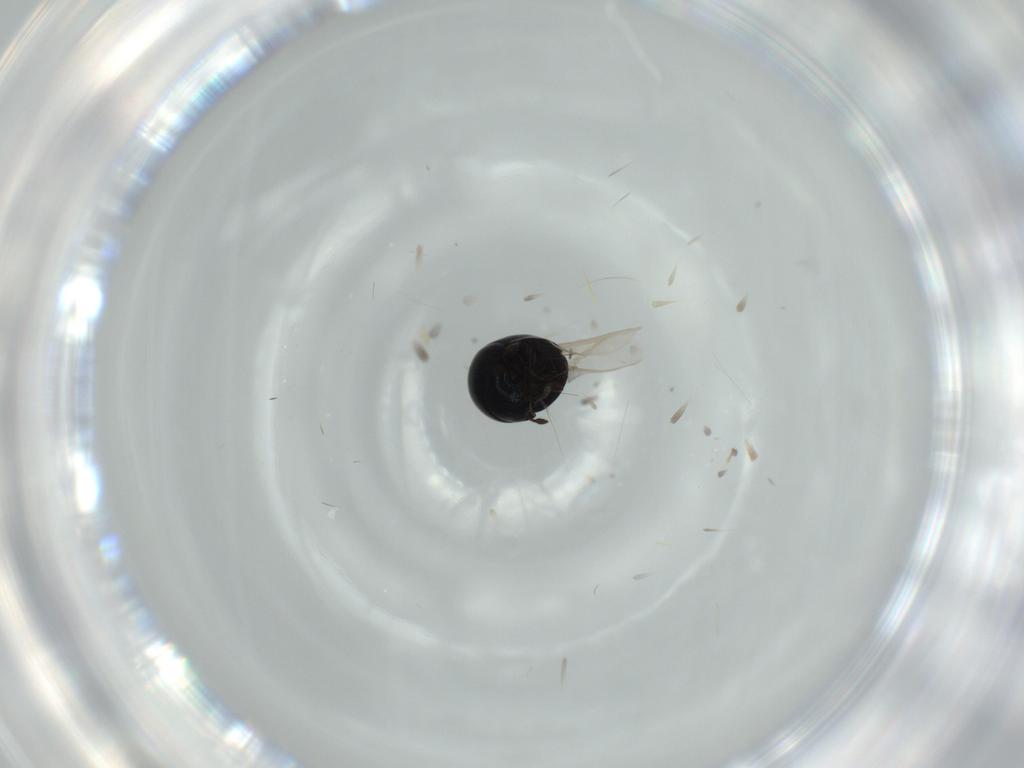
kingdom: Animalia
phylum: Arthropoda
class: Insecta
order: Coleoptera
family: Cybocephalidae
